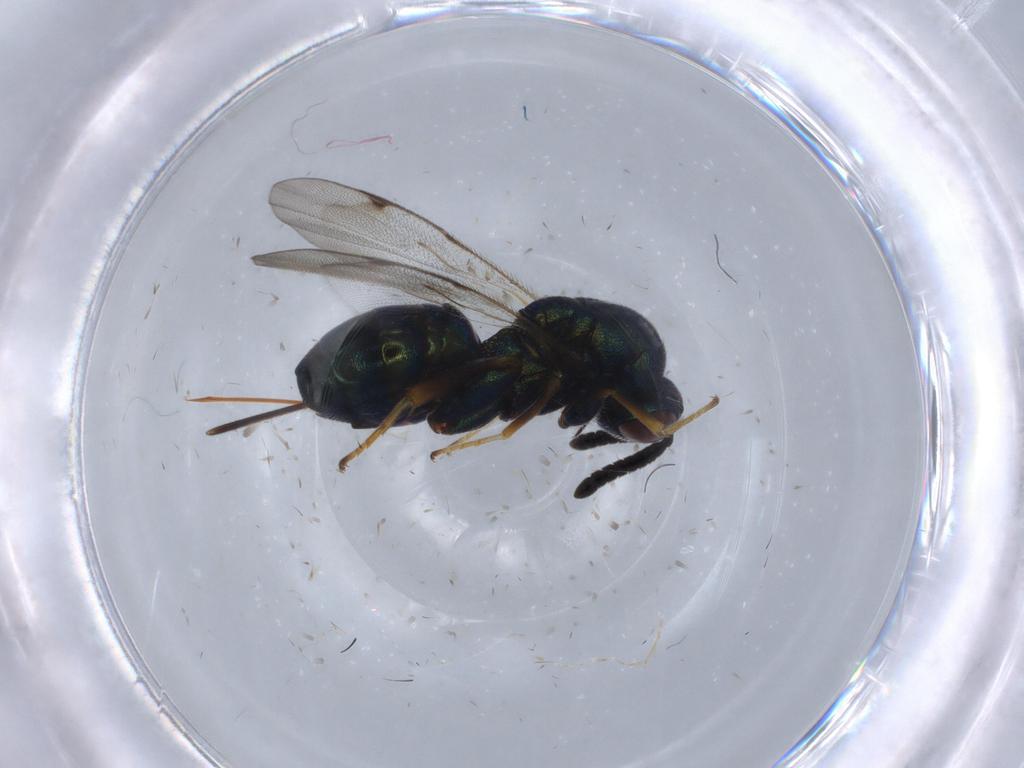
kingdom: Animalia
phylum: Arthropoda
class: Insecta
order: Hymenoptera
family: Torymidae
